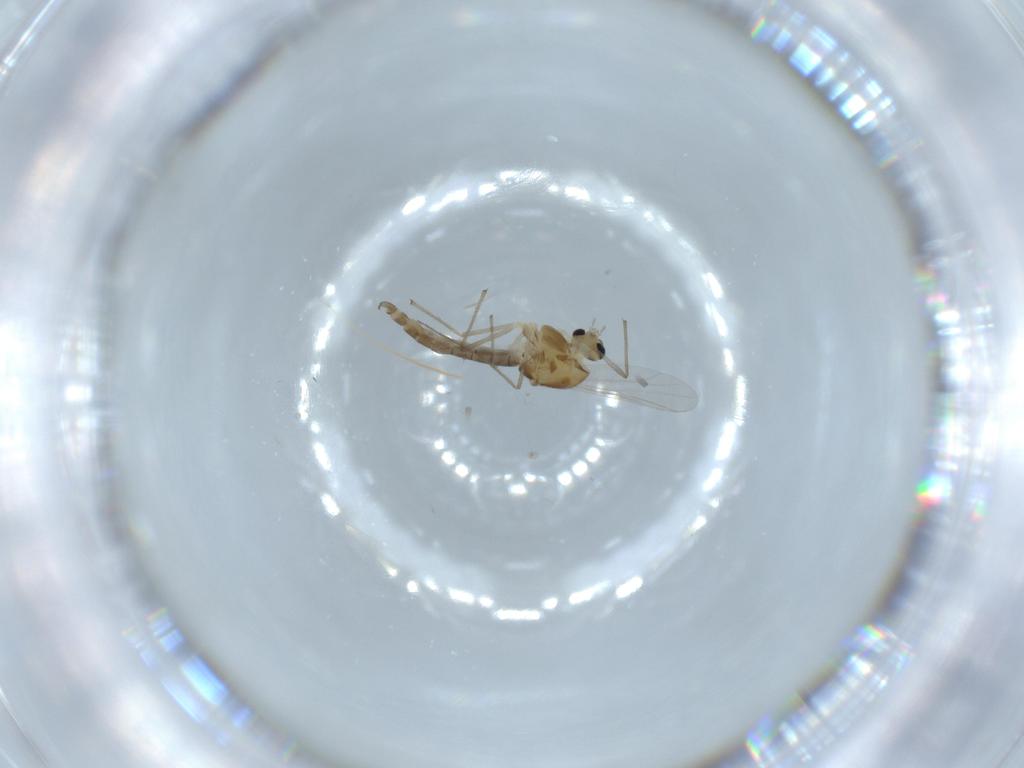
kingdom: Animalia
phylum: Arthropoda
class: Insecta
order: Diptera
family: Chironomidae
